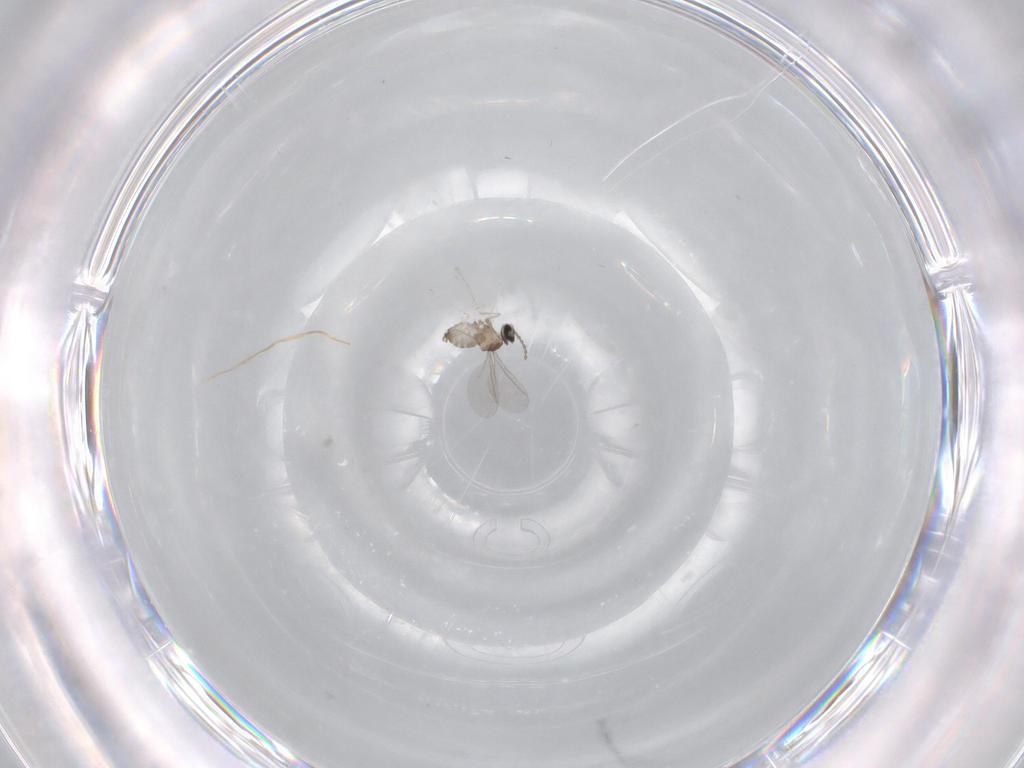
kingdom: Animalia
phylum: Arthropoda
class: Insecta
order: Diptera
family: Cecidomyiidae
